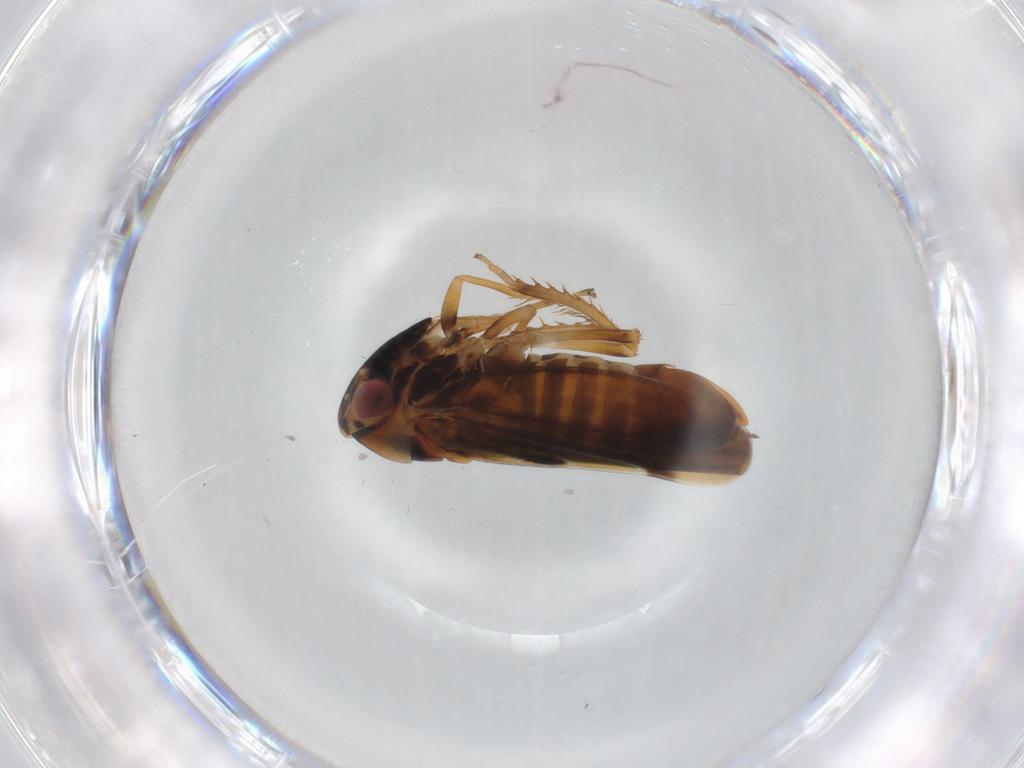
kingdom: Animalia
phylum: Arthropoda
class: Insecta
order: Hemiptera
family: Cicadellidae
